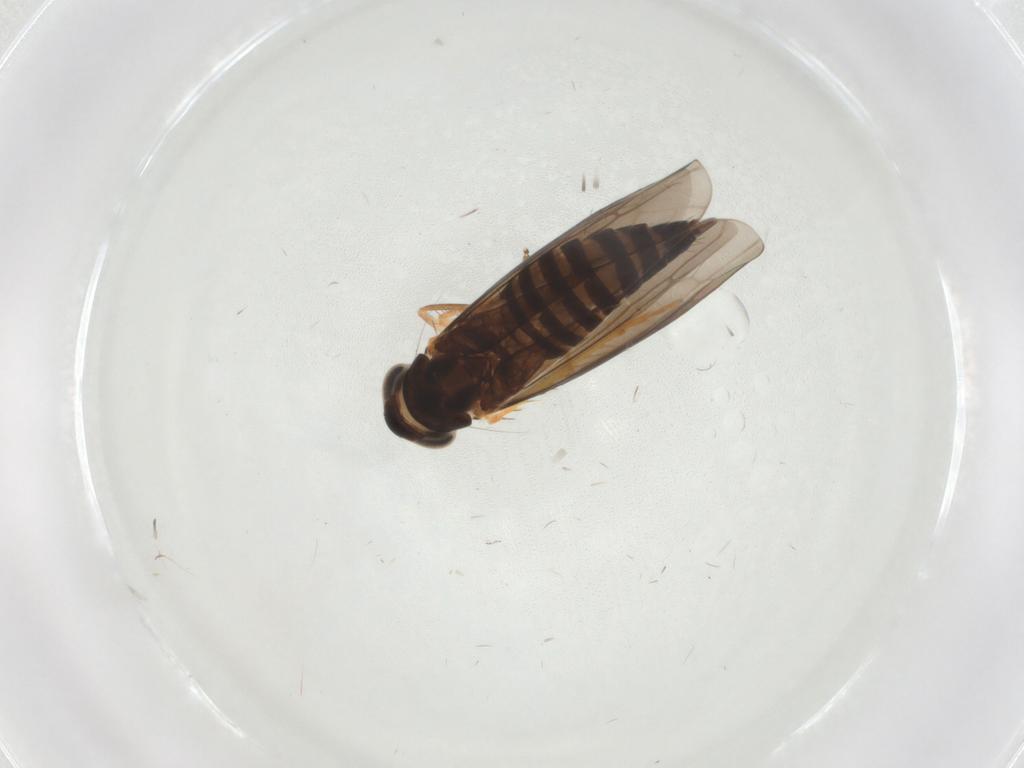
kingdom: Animalia
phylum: Arthropoda
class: Insecta
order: Hemiptera
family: Cicadellidae
